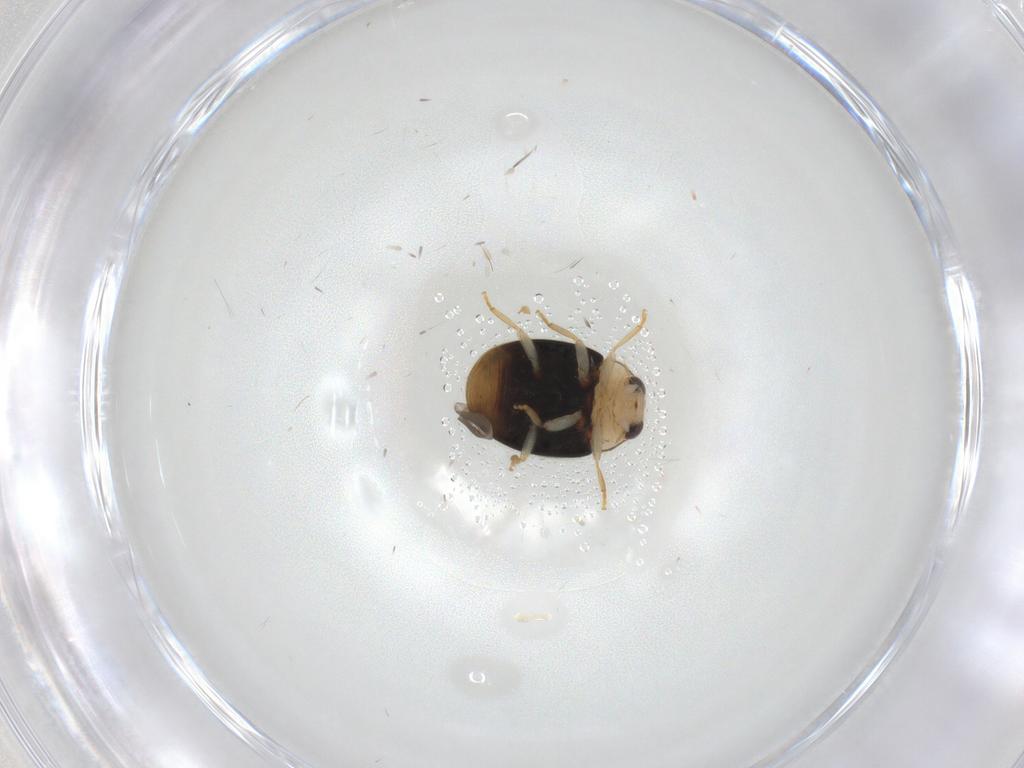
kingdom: Animalia
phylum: Arthropoda
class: Insecta
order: Coleoptera
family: Coccinellidae
